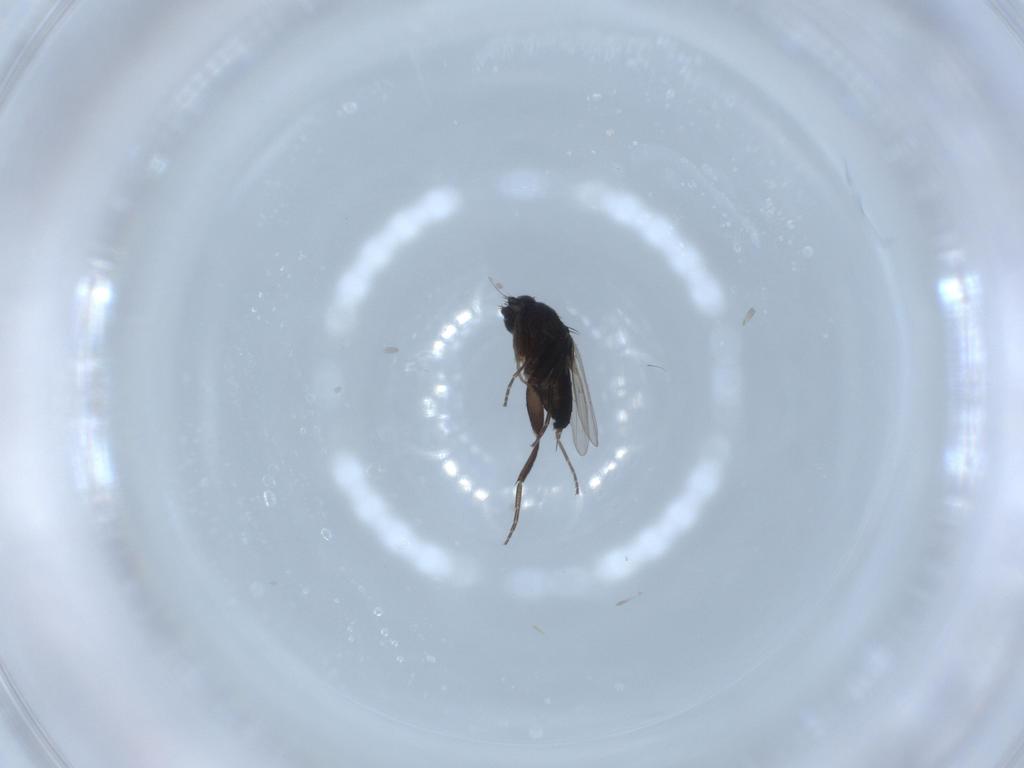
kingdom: Animalia
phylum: Arthropoda
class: Insecta
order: Diptera
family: Phoridae
